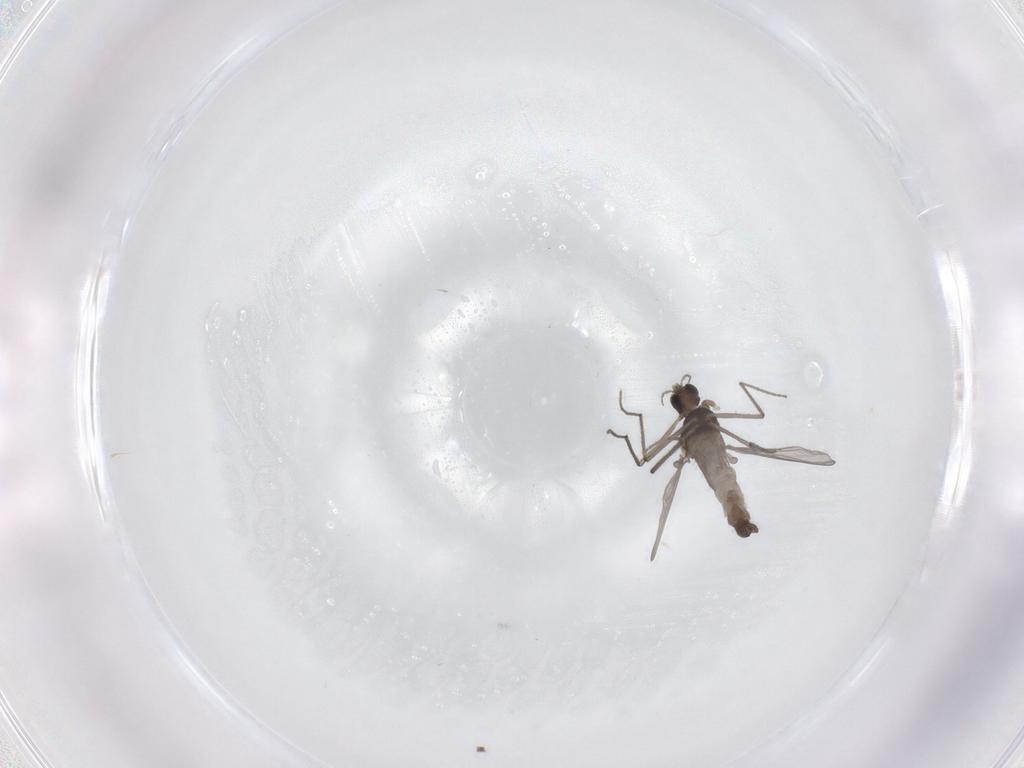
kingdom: Animalia
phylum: Arthropoda
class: Insecta
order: Diptera
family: Chironomidae
